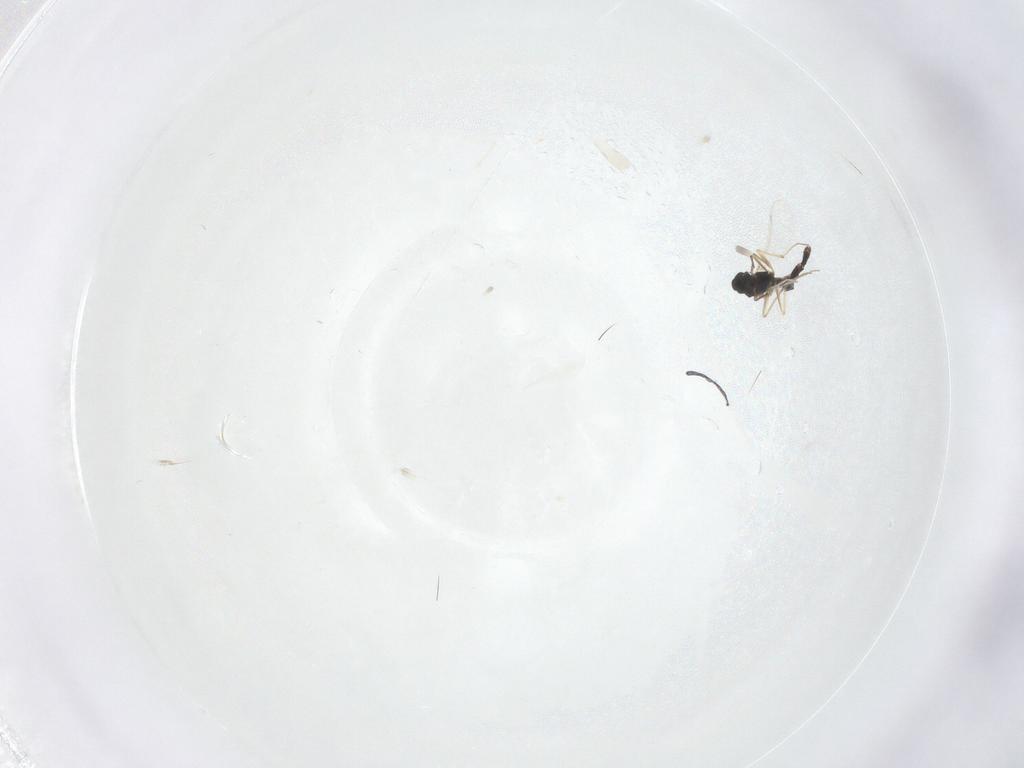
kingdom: Animalia
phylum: Arthropoda
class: Insecta
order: Diptera
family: Chironomidae
